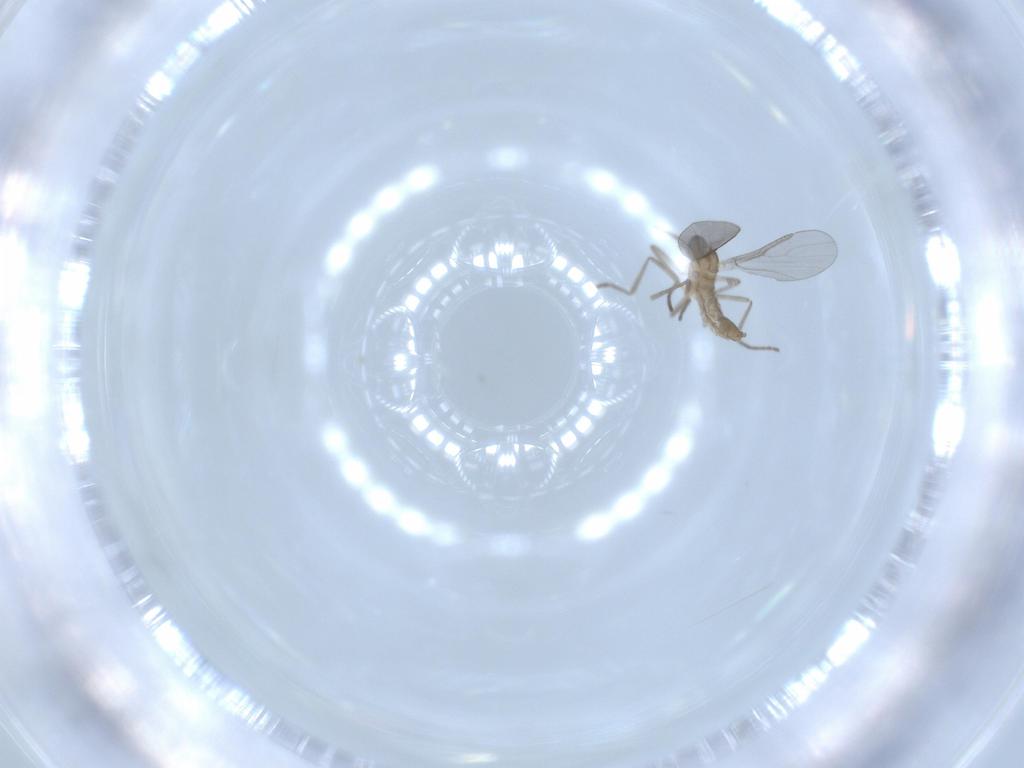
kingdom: Animalia
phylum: Arthropoda
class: Insecta
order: Diptera
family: Cecidomyiidae
